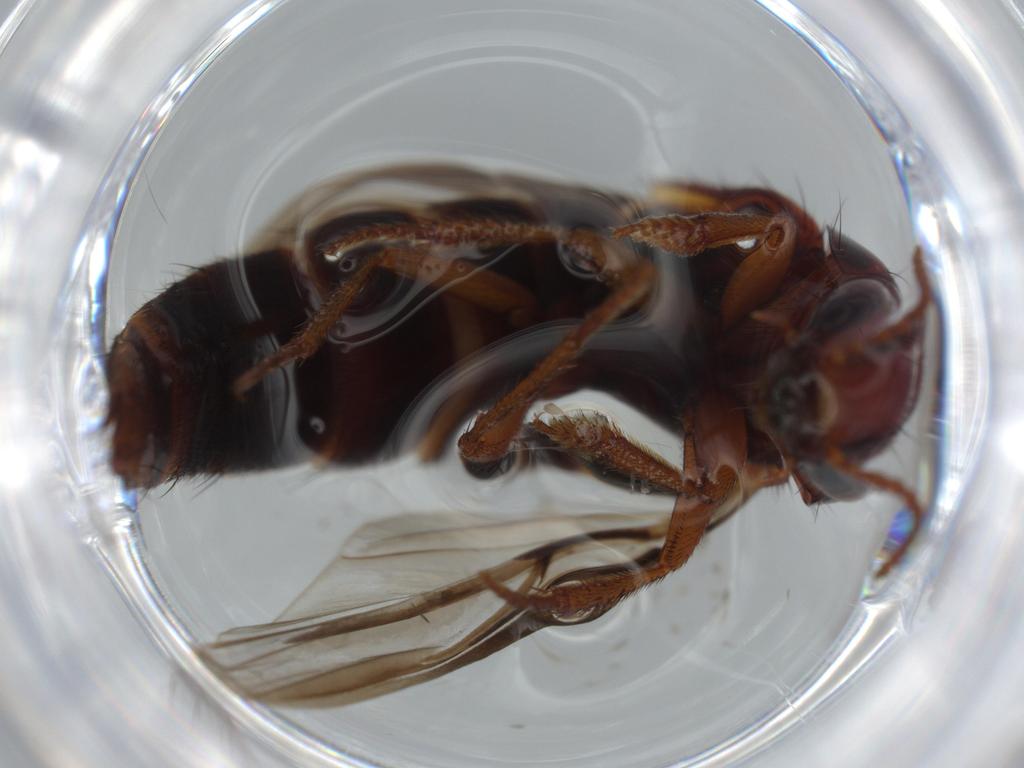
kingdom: Animalia
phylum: Arthropoda
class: Insecta
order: Coleoptera
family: Staphylinidae
